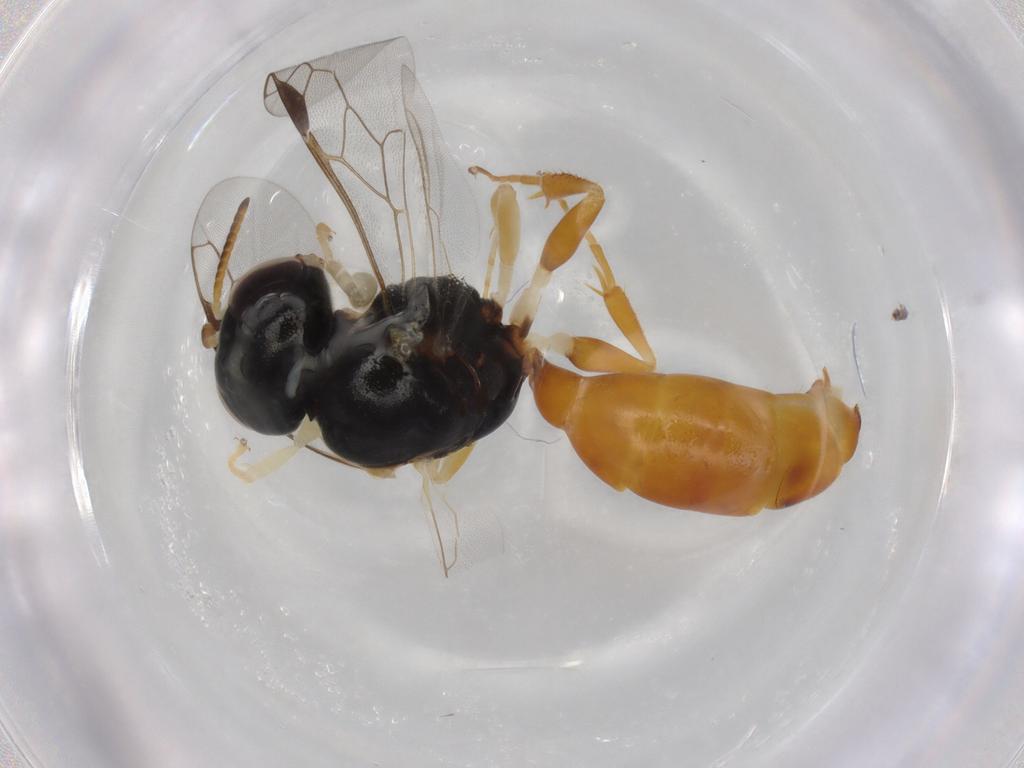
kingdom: Animalia
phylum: Arthropoda
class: Insecta
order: Hymenoptera
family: Crabronidae
